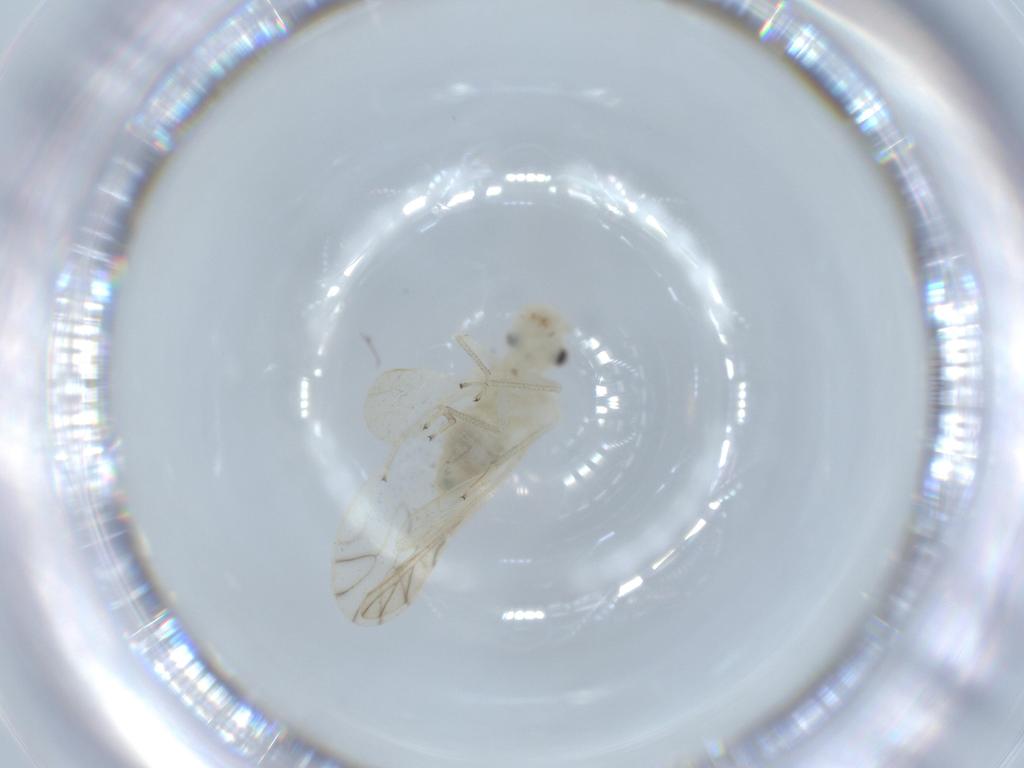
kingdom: Animalia
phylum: Arthropoda
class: Insecta
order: Psocodea
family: Caeciliusidae
